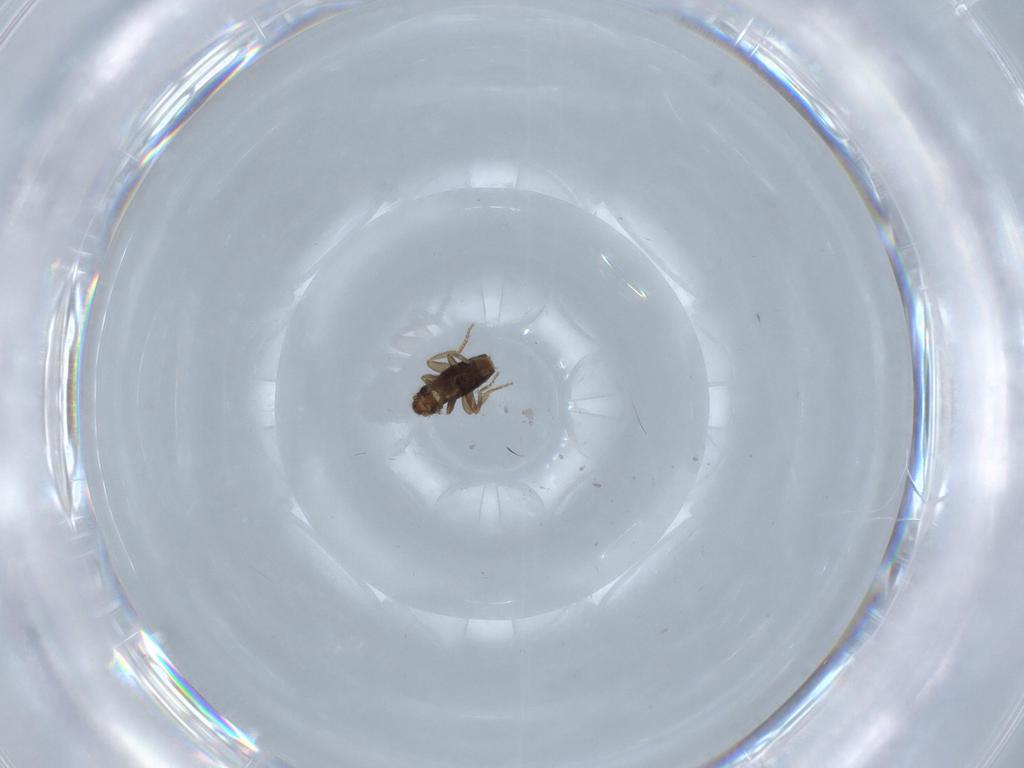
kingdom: Animalia
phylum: Arthropoda
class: Insecta
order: Diptera
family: Phoridae
